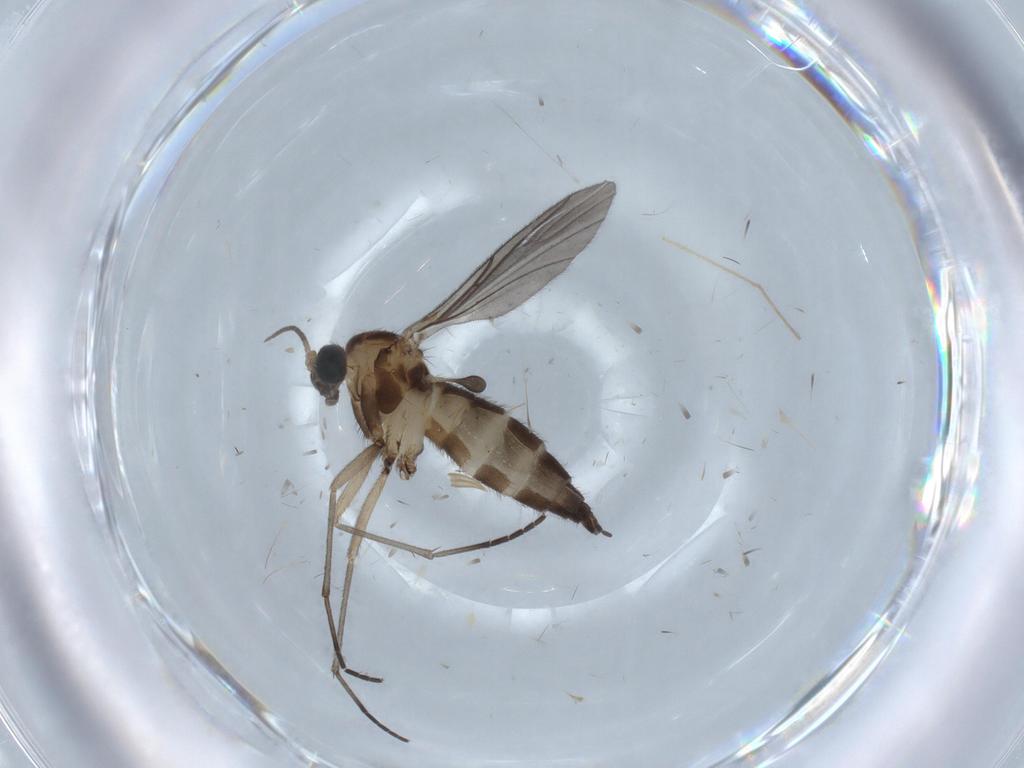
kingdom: Animalia
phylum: Arthropoda
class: Insecta
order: Diptera
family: Sciaridae
